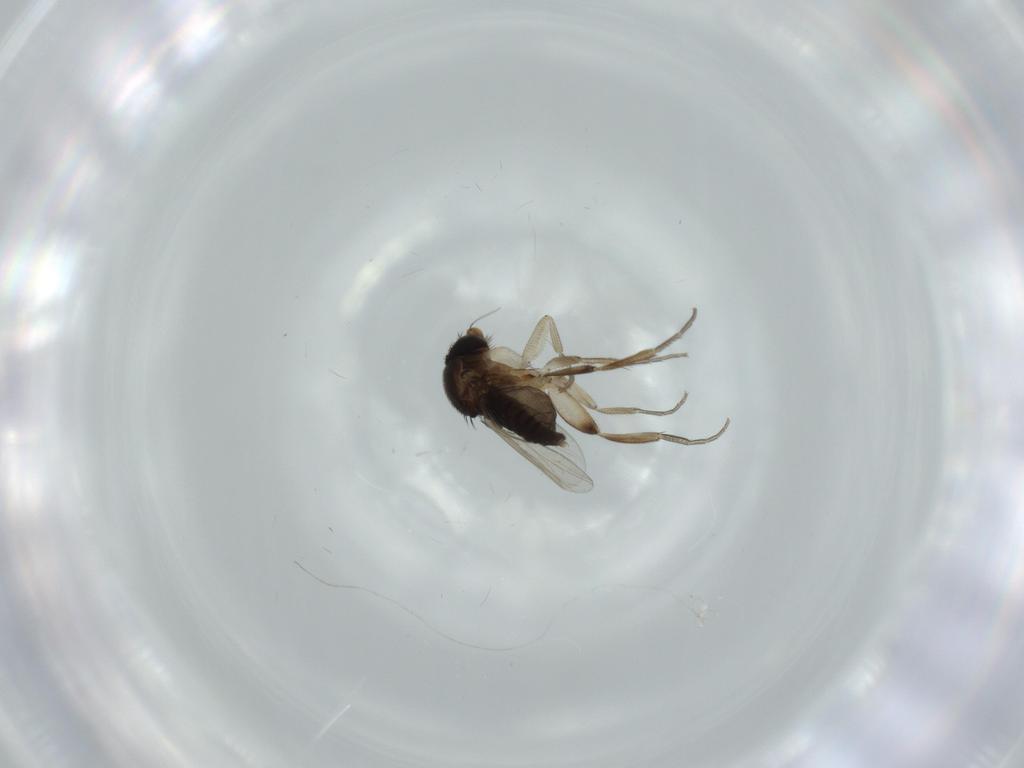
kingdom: Animalia
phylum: Arthropoda
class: Insecta
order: Diptera
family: Phoridae
